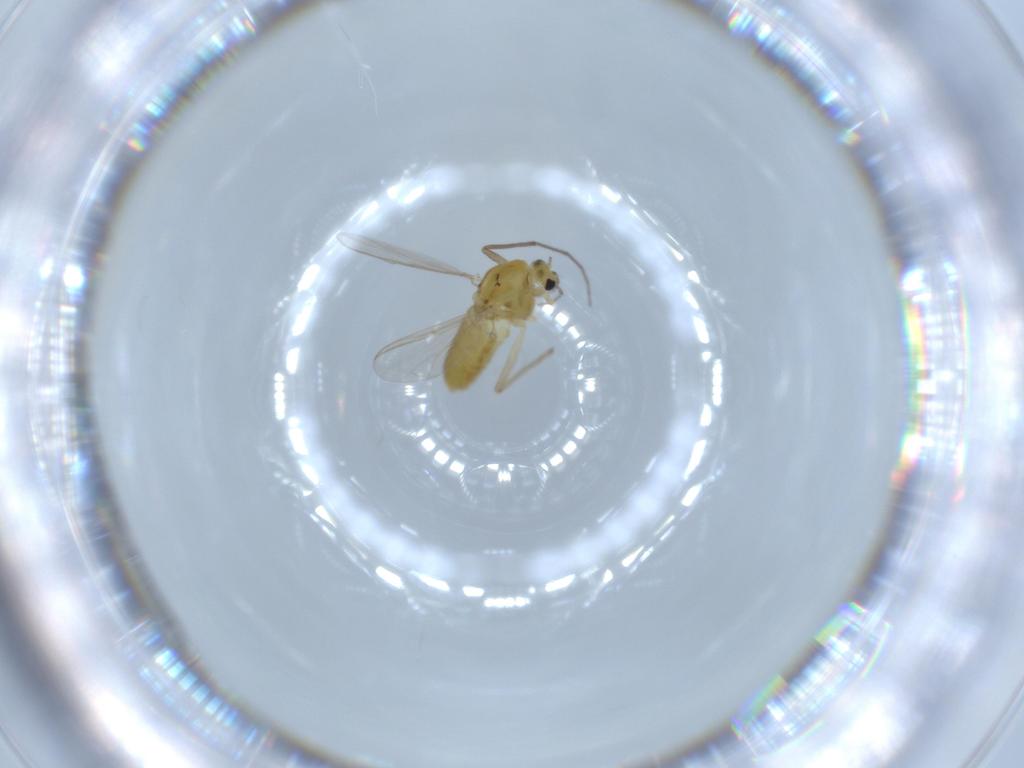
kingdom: Animalia
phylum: Arthropoda
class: Insecta
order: Diptera
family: Chironomidae
